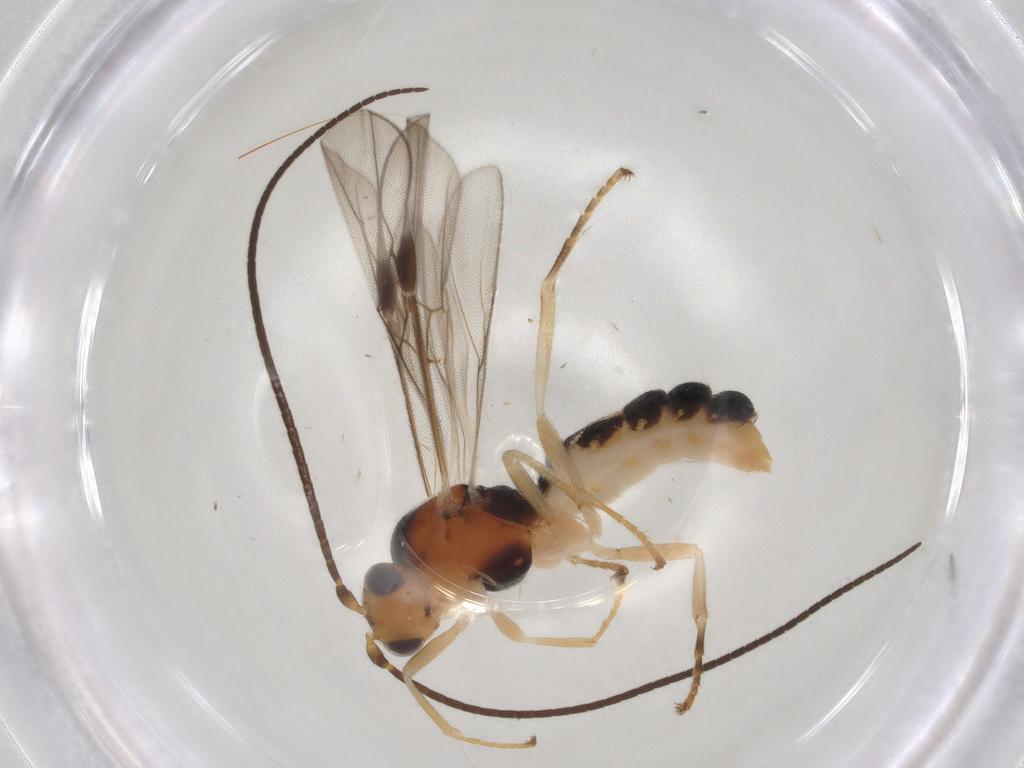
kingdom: Animalia
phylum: Arthropoda
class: Insecta
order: Hymenoptera
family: Braconidae
